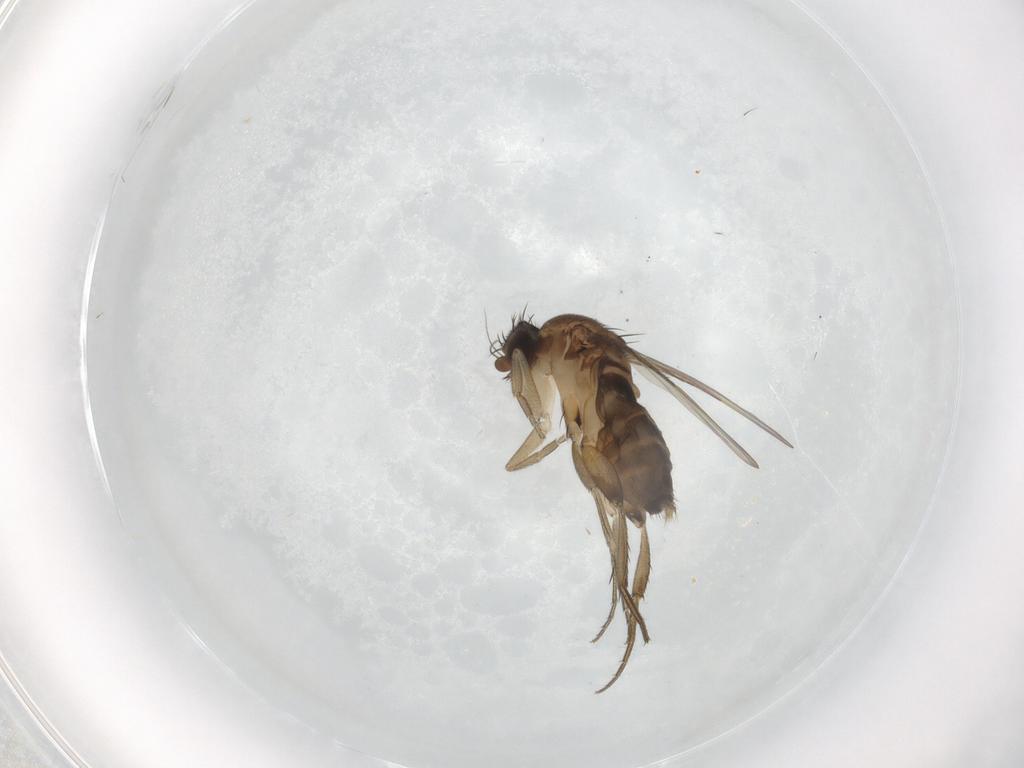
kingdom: Animalia
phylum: Arthropoda
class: Insecta
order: Diptera
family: Phoridae
